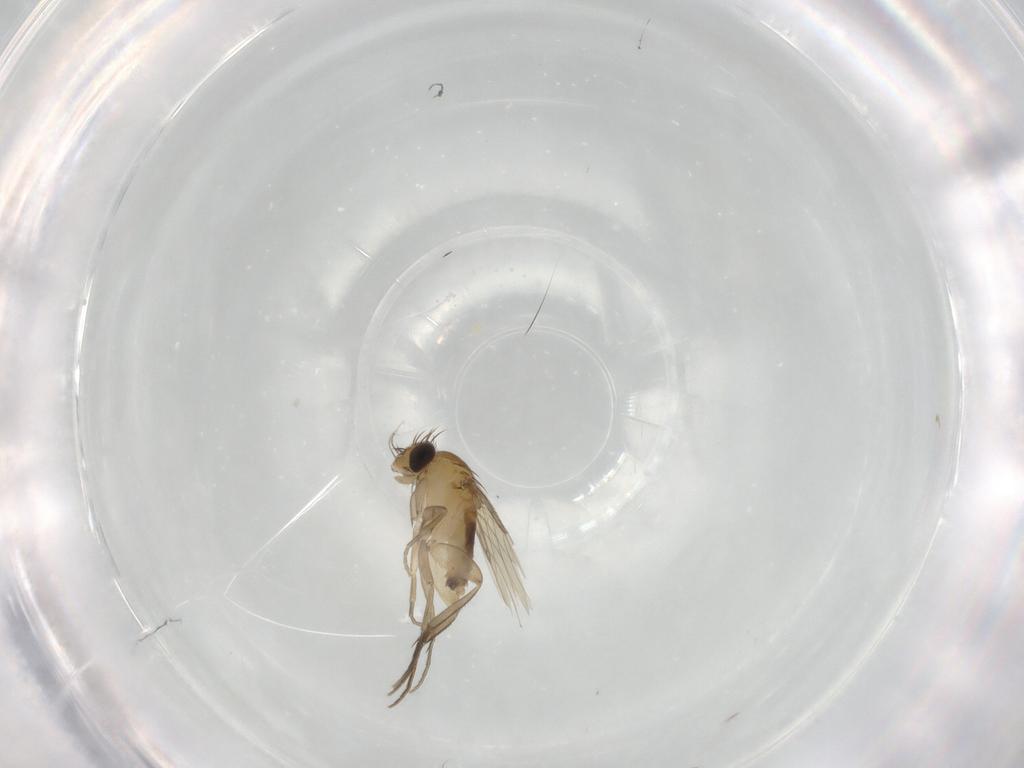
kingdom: Animalia
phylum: Arthropoda
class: Insecta
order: Diptera
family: Phoridae
